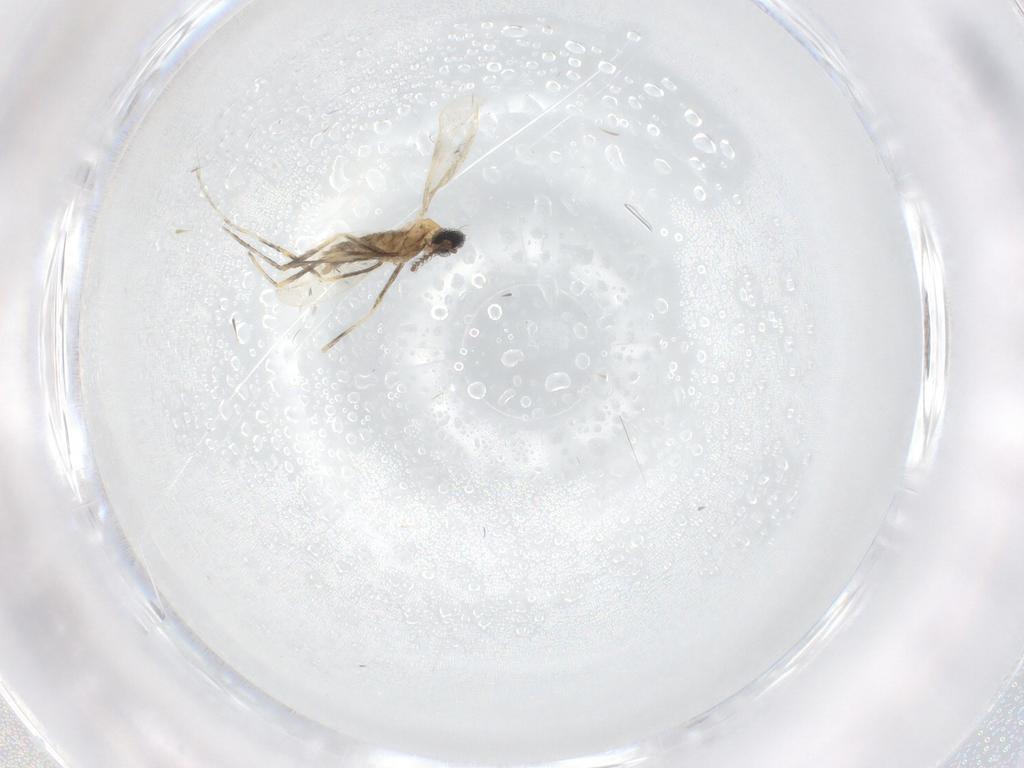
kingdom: Animalia
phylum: Arthropoda
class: Insecta
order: Diptera
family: Cecidomyiidae
